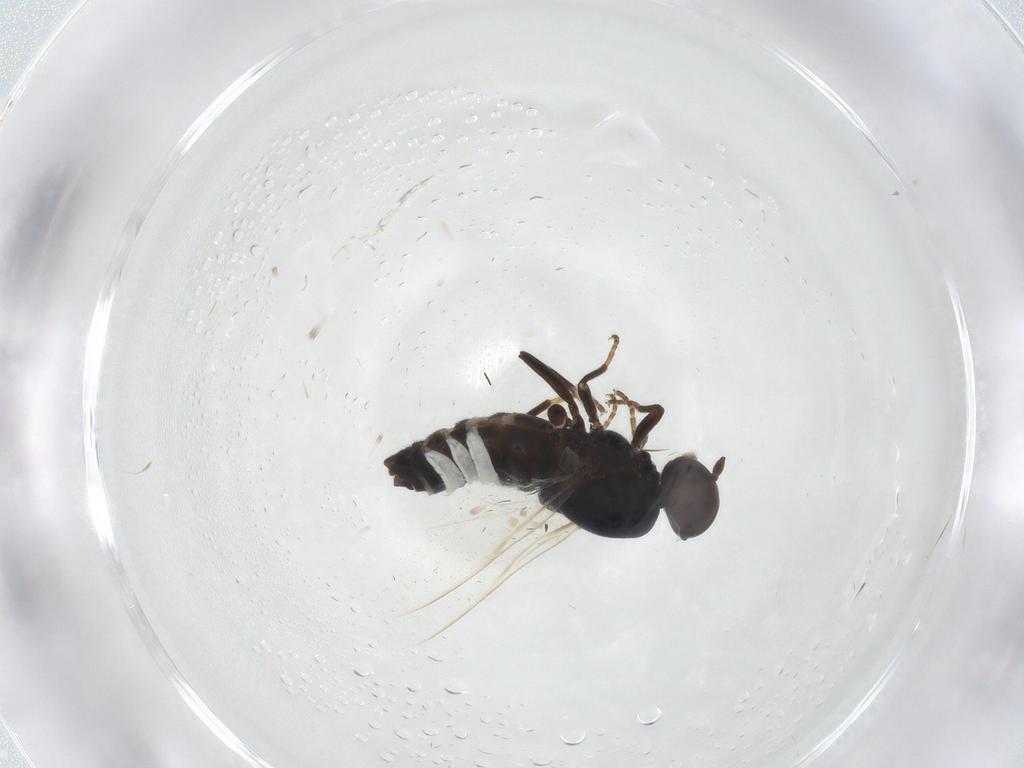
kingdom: Animalia
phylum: Arthropoda
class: Insecta
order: Diptera
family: Scenopinidae
